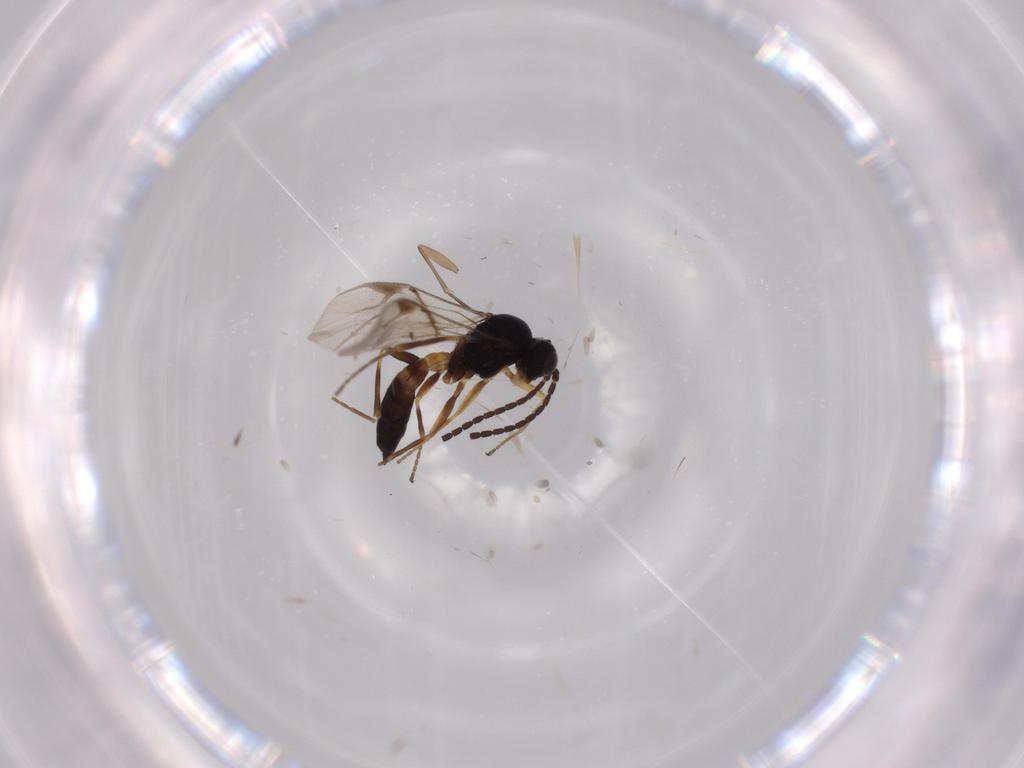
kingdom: Animalia
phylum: Arthropoda
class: Insecta
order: Hymenoptera
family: Braconidae
